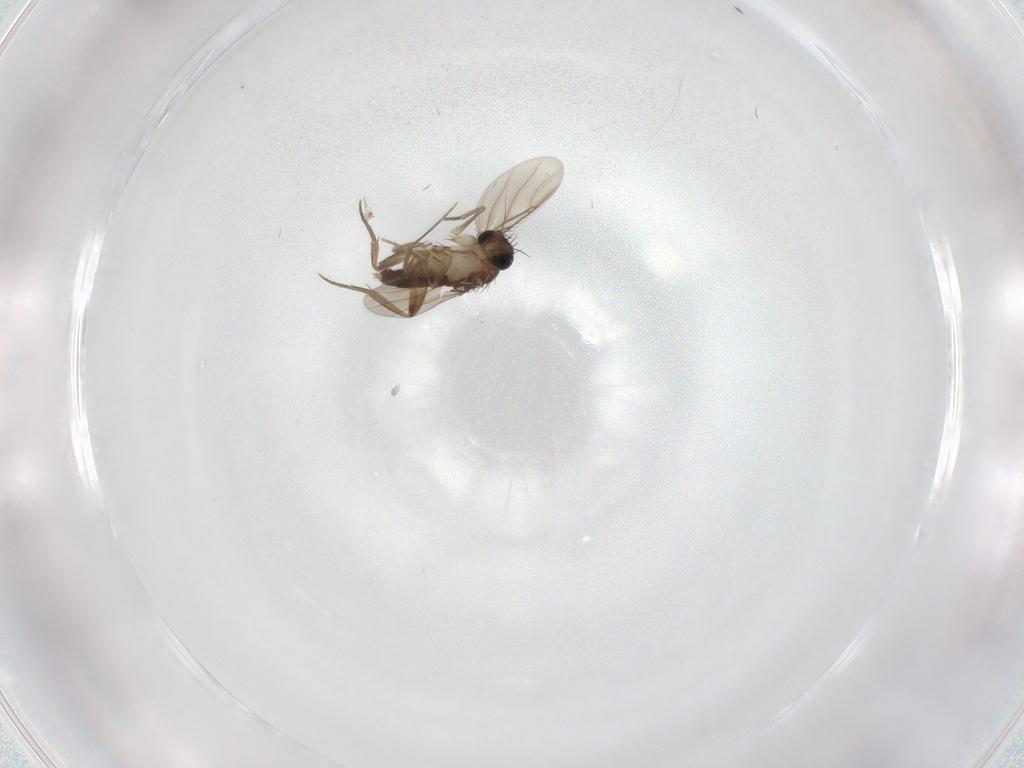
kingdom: Animalia
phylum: Arthropoda
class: Insecta
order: Diptera
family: Phoridae
